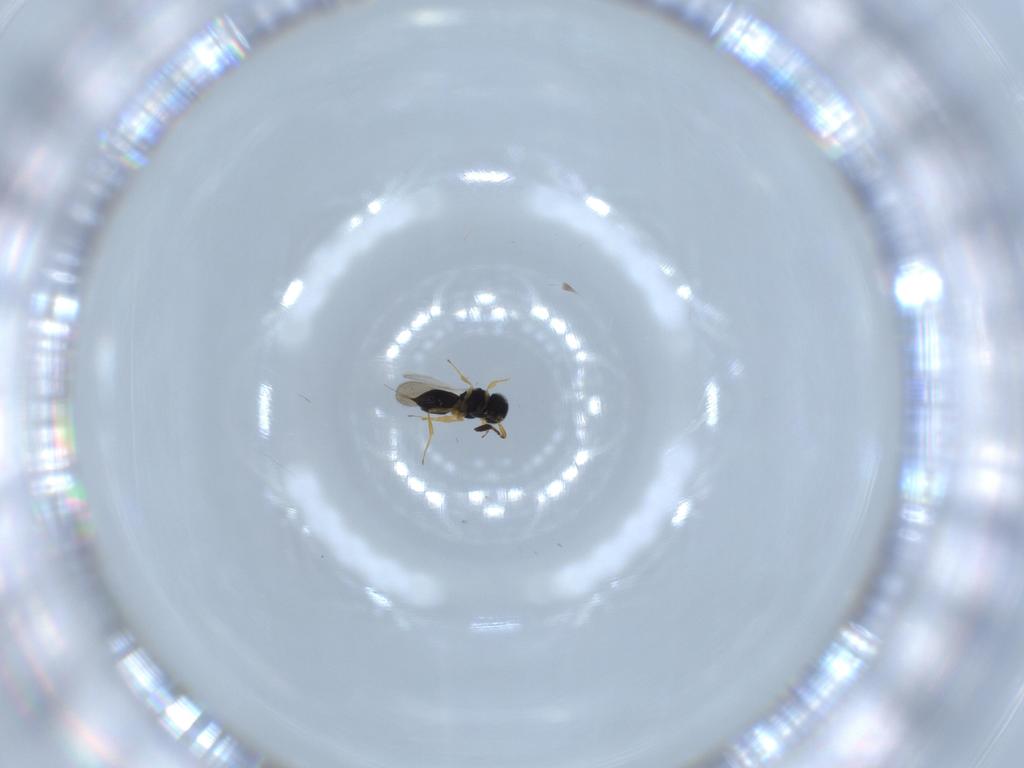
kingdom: Animalia
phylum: Arthropoda
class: Insecta
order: Hymenoptera
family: Scelionidae
